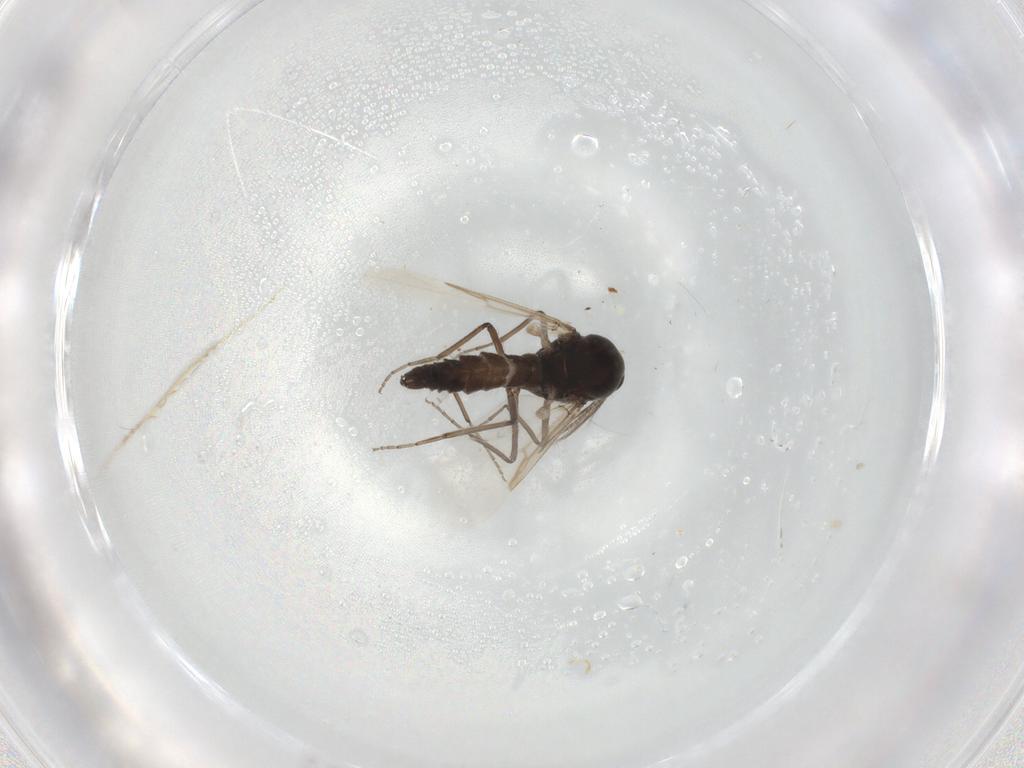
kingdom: Animalia
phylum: Arthropoda
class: Insecta
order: Diptera
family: Ceratopogonidae
